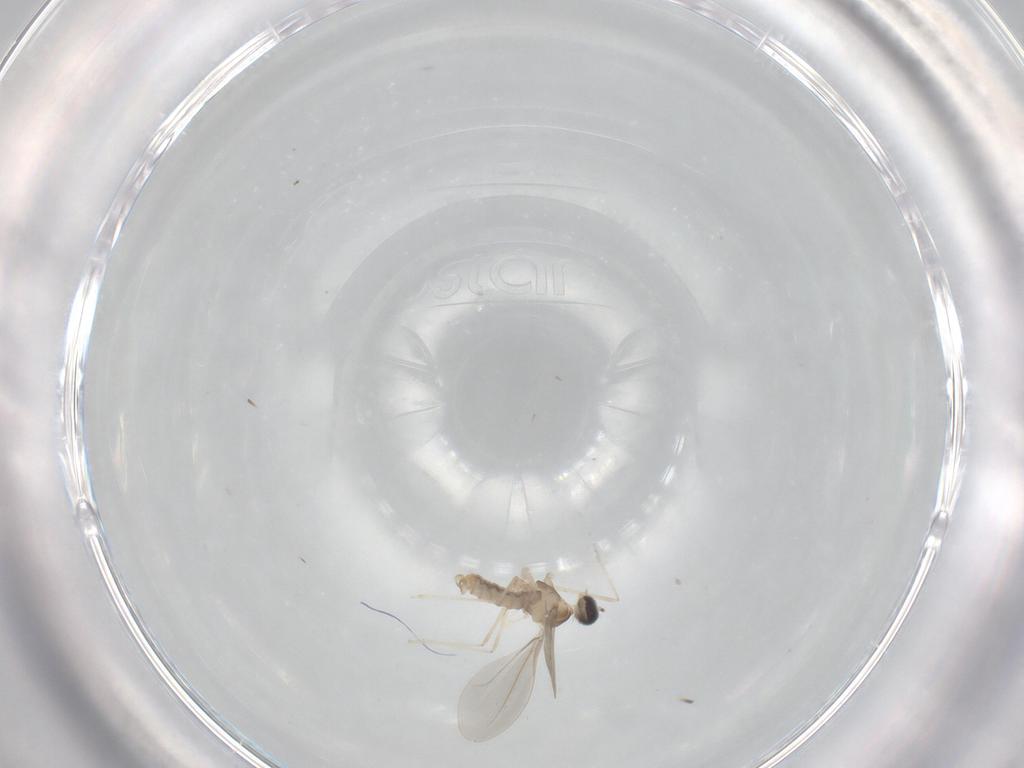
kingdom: Animalia
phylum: Arthropoda
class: Insecta
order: Diptera
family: Cecidomyiidae
